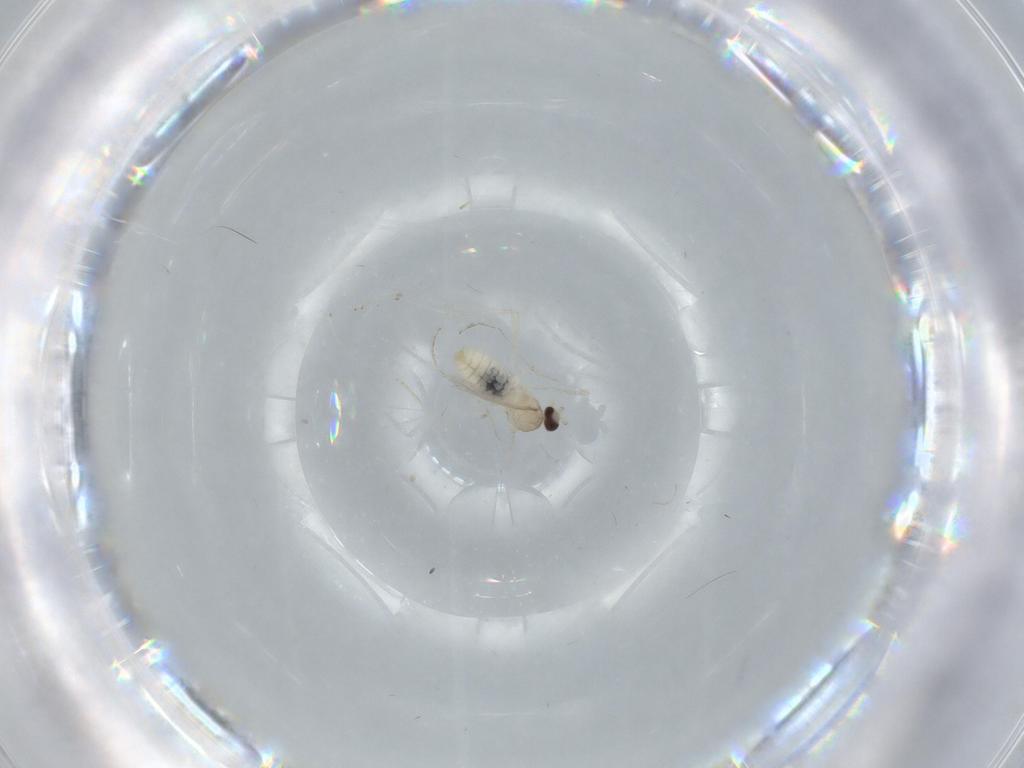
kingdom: Animalia
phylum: Arthropoda
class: Insecta
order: Diptera
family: Cecidomyiidae
